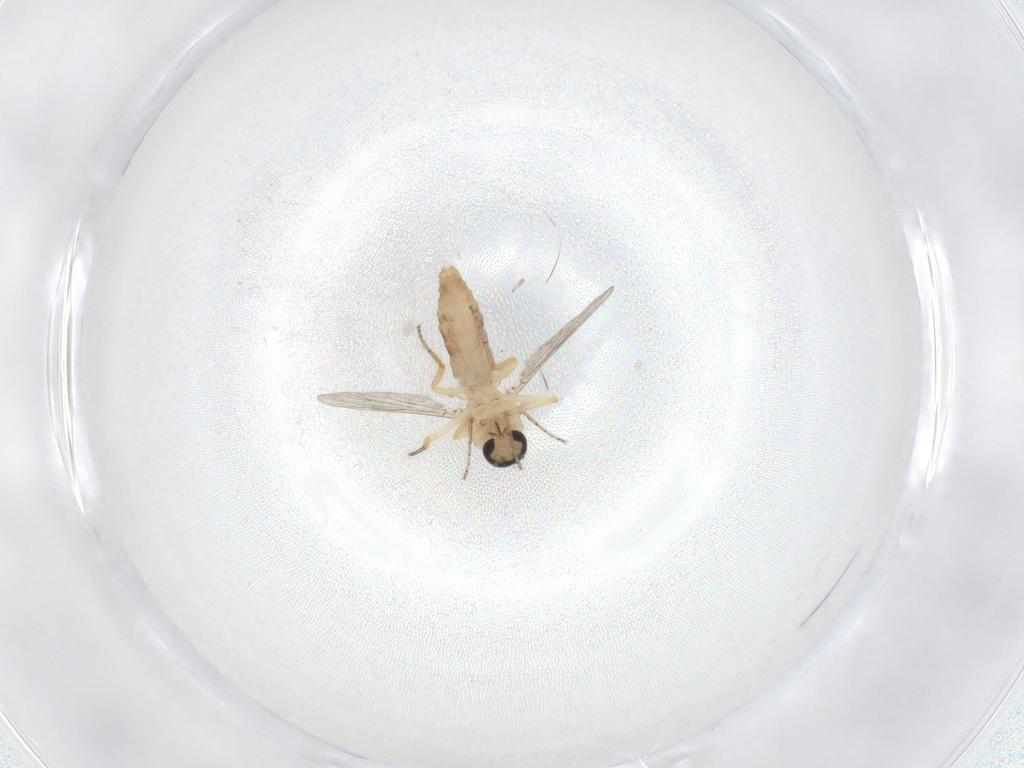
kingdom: Animalia
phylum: Arthropoda
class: Insecta
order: Diptera
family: Ceratopogonidae
